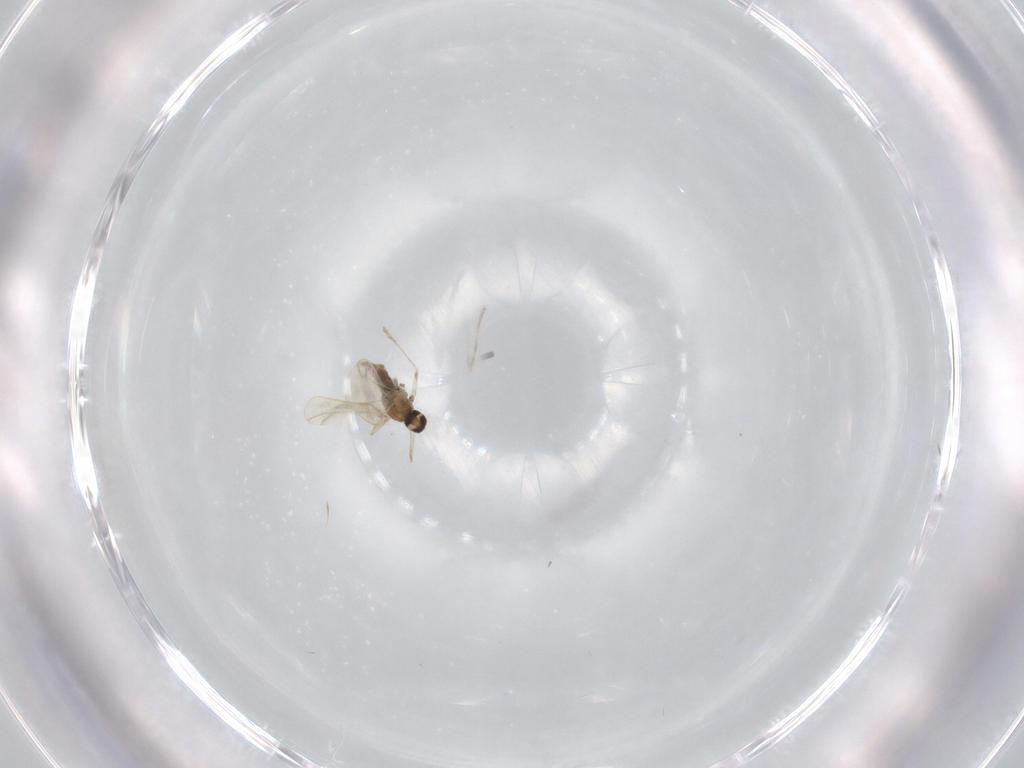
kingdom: Animalia
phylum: Arthropoda
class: Insecta
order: Diptera
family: Cecidomyiidae
